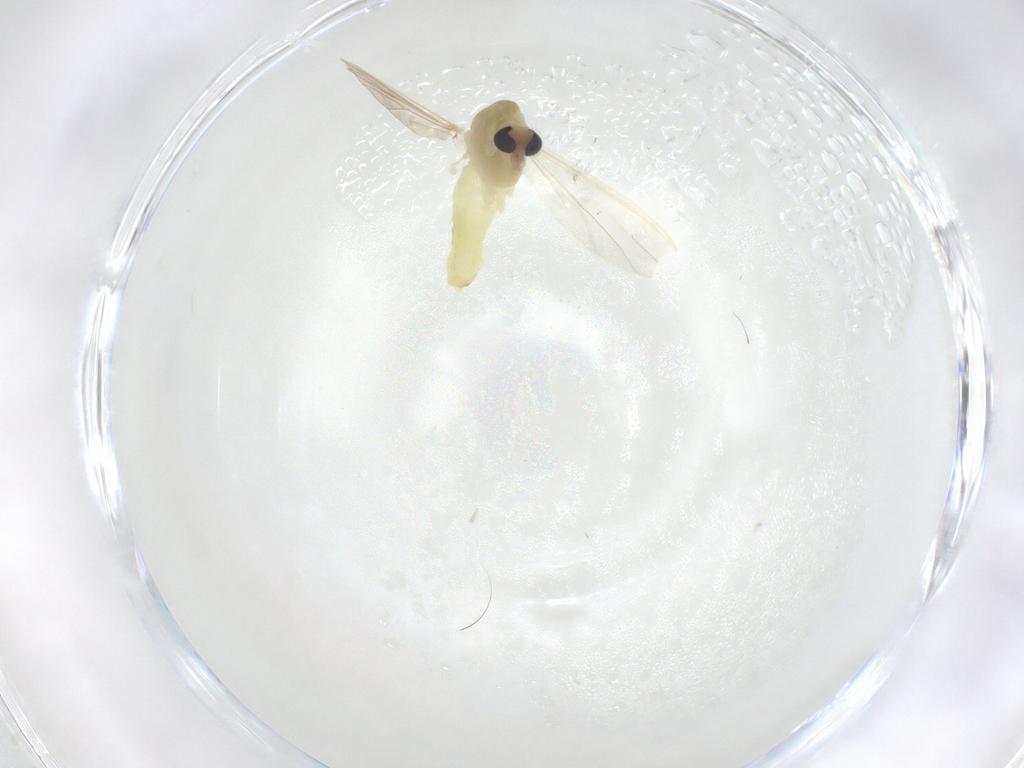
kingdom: Animalia
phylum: Arthropoda
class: Insecta
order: Diptera
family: Chironomidae
